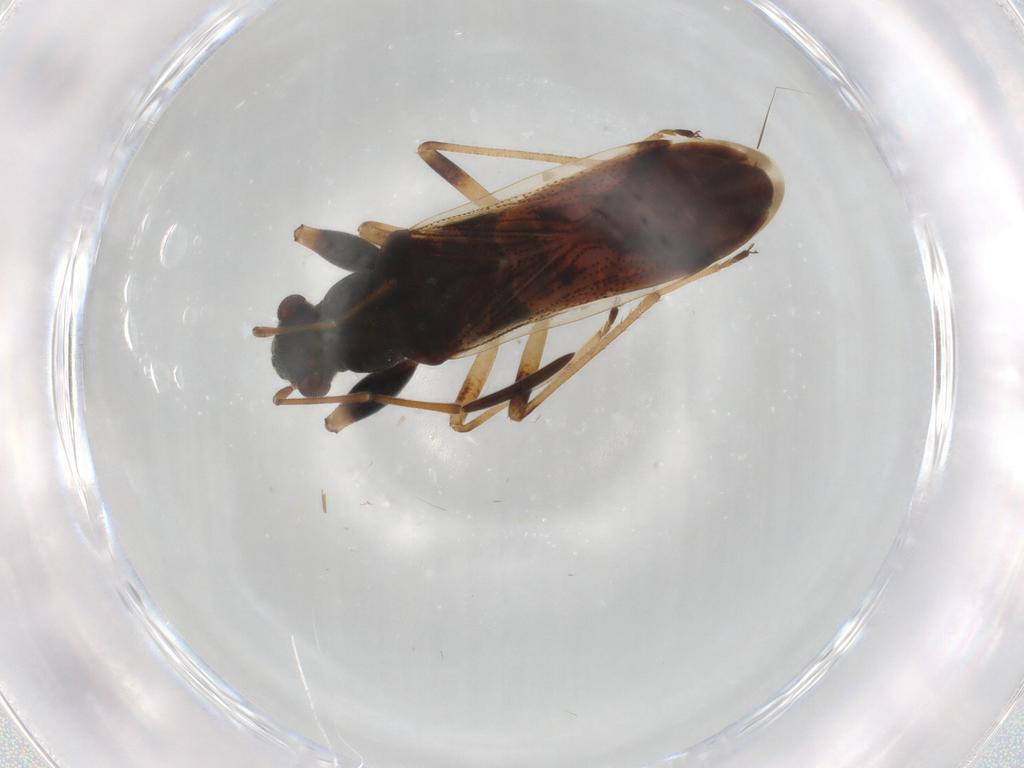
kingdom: Animalia
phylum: Arthropoda
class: Insecta
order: Hemiptera
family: Rhyparochromidae
